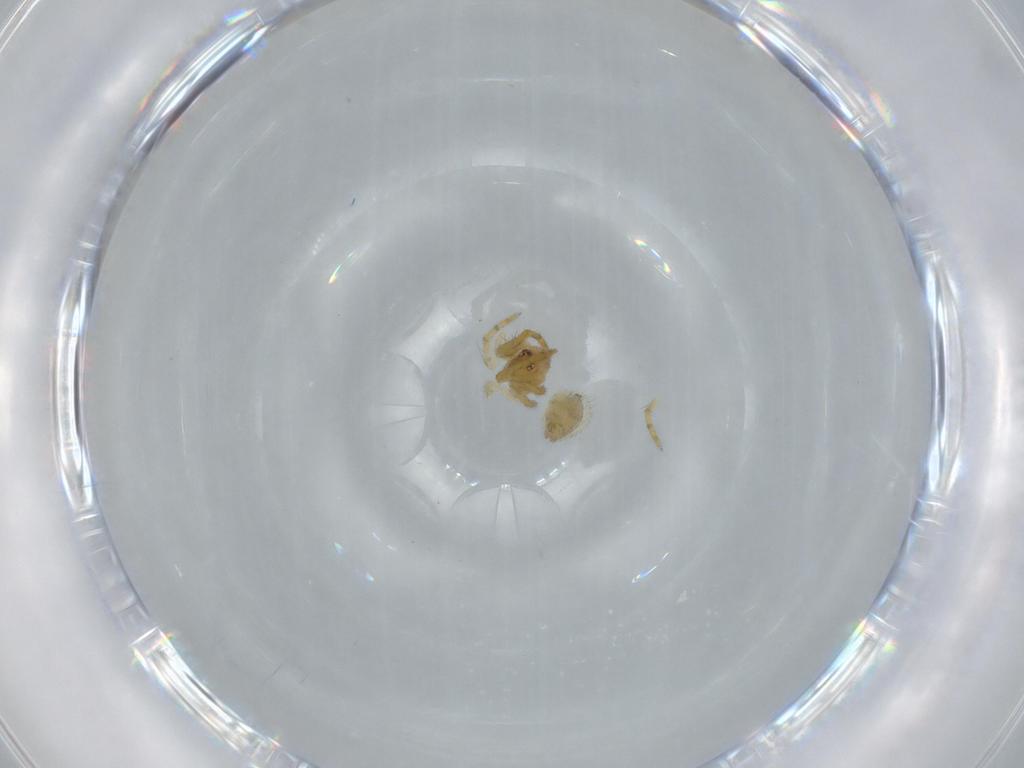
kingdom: Animalia
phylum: Arthropoda
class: Arachnida
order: Araneae
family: Theridiidae
